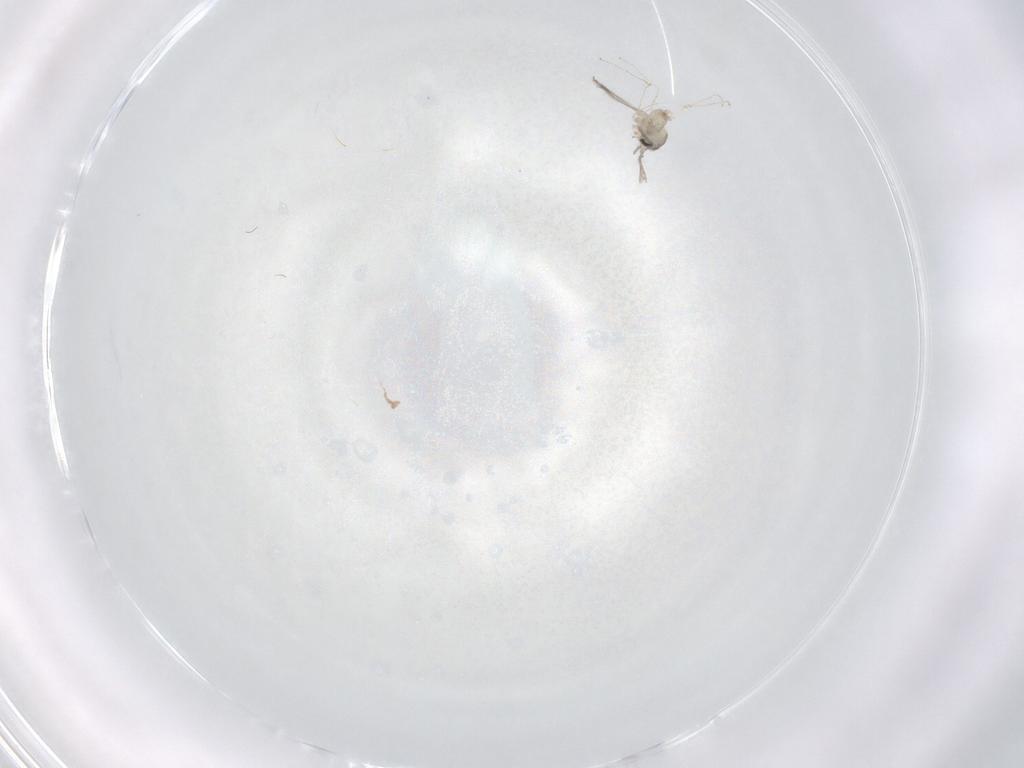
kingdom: Animalia
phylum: Arthropoda
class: Insecta
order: Diptera
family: Cecidomyiidae
